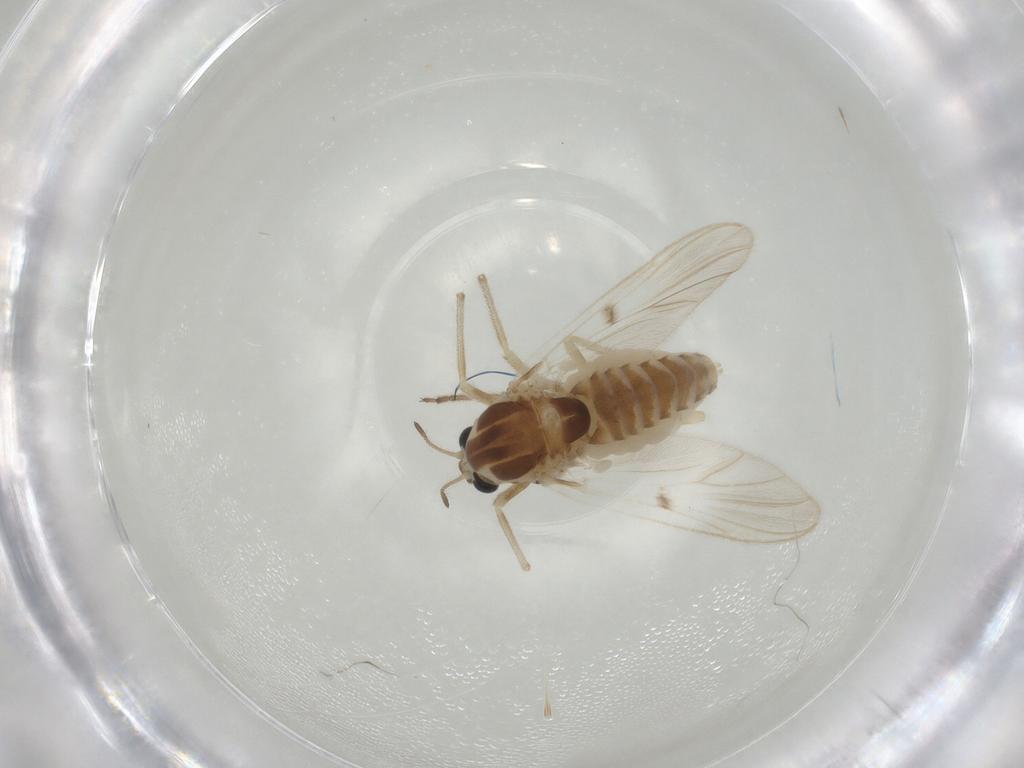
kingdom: Animalia
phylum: Arthropoda
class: Insecta
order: Diptera
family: Chironomidae
